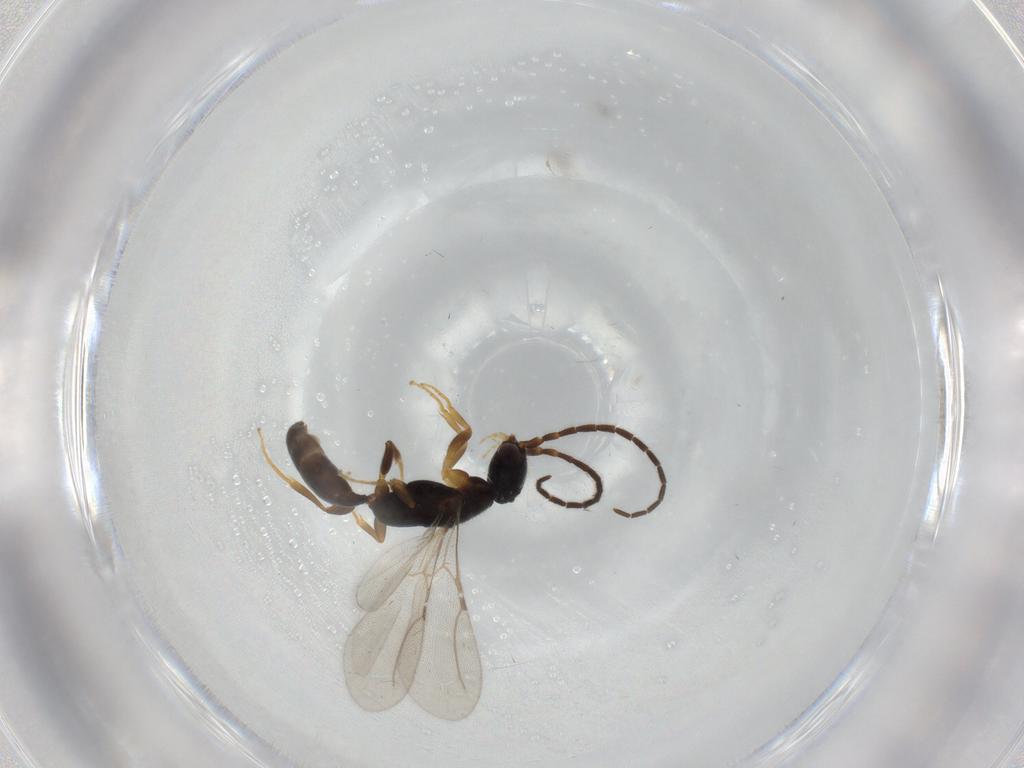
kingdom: Animalia
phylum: Arthropoda
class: Insecta
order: Hymenoptera
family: Bethylidae
